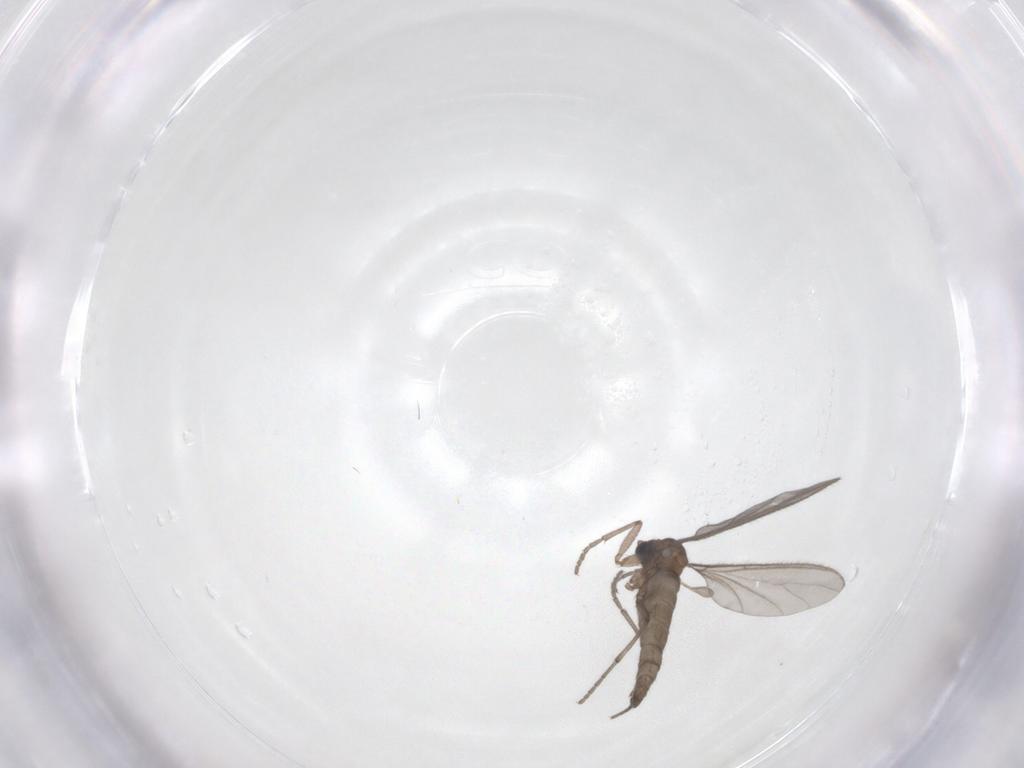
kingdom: Animalia
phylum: Arthropoda
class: Insecta
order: Diptera
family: Sciaridae
